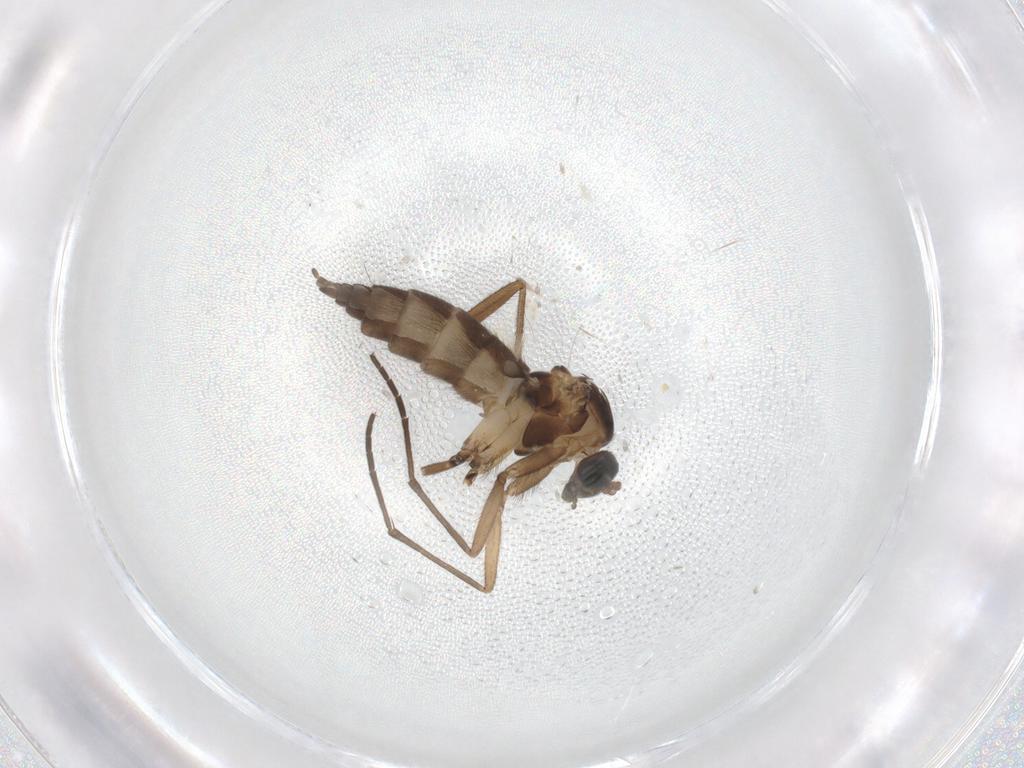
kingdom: Animalia
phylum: Arthropoda
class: Insecta
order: Diptera
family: Sciaridae
